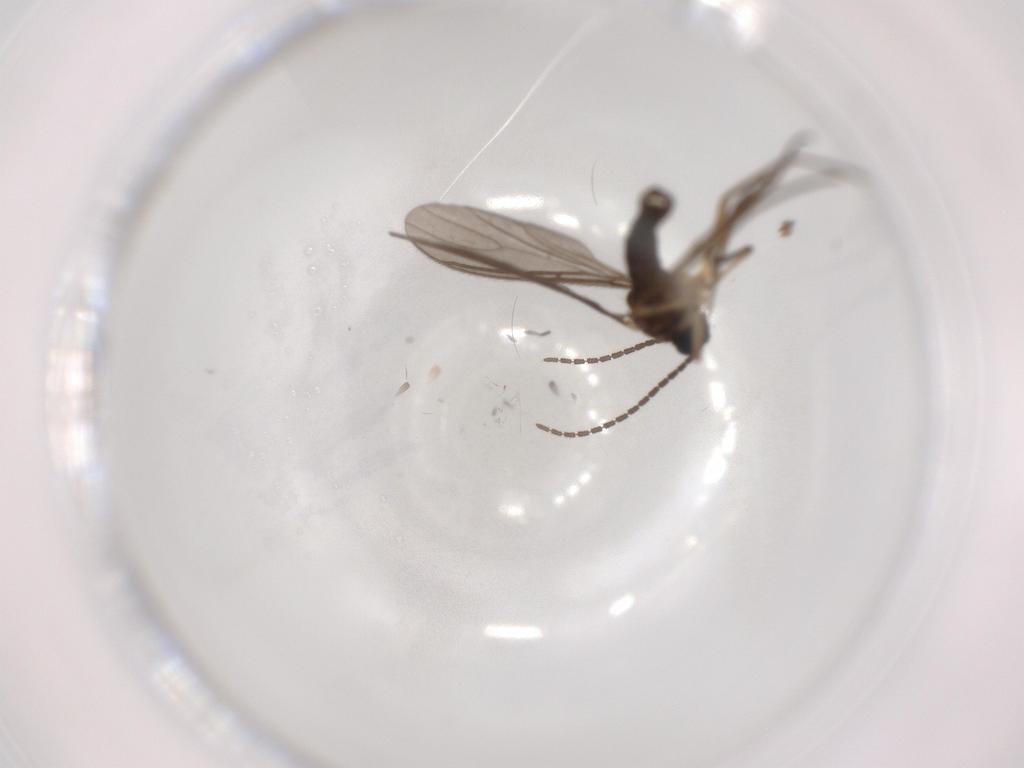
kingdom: Animalia
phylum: Arthropoda
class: Insecta
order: Diptera
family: Sciaridae
